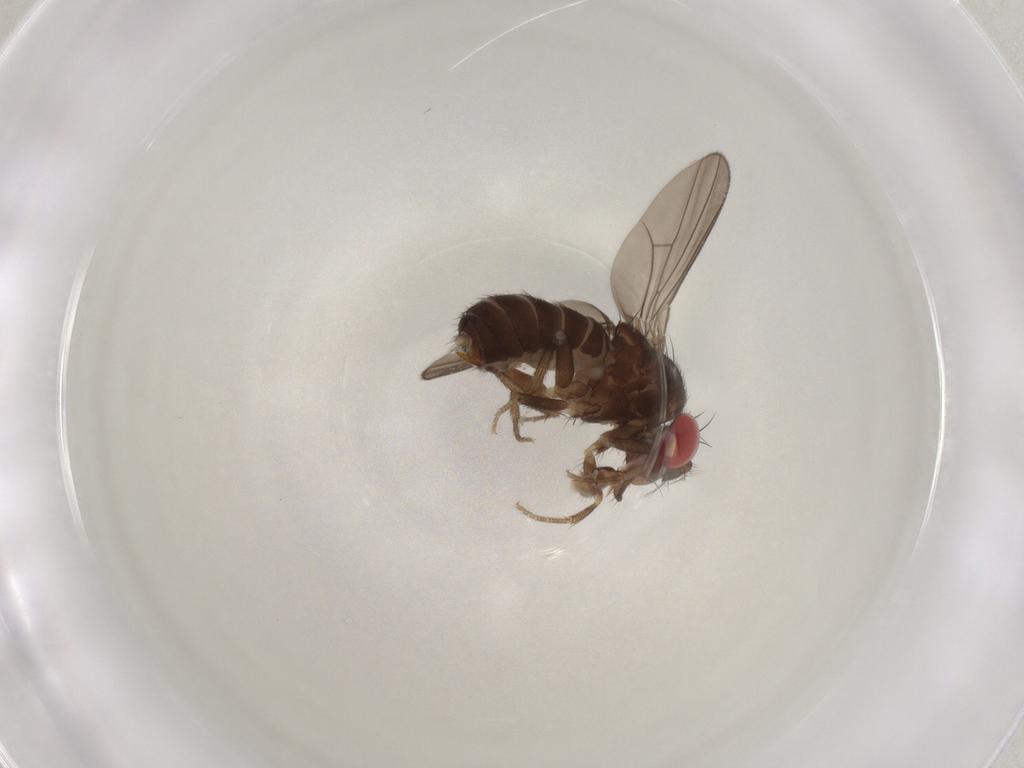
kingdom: Animalia
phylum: Arthropoda
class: Insecta
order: Diptera
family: Drosophilidae
